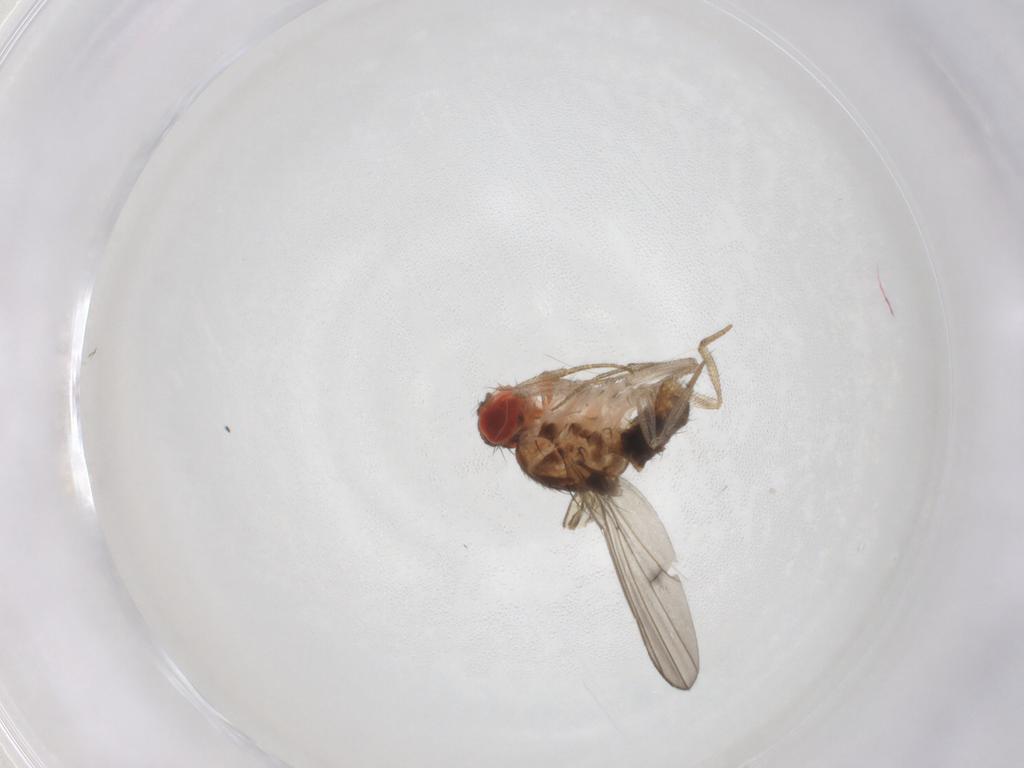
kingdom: Animalia
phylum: Arthropoda
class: Insecta
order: Diptera
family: Drosophilidae
